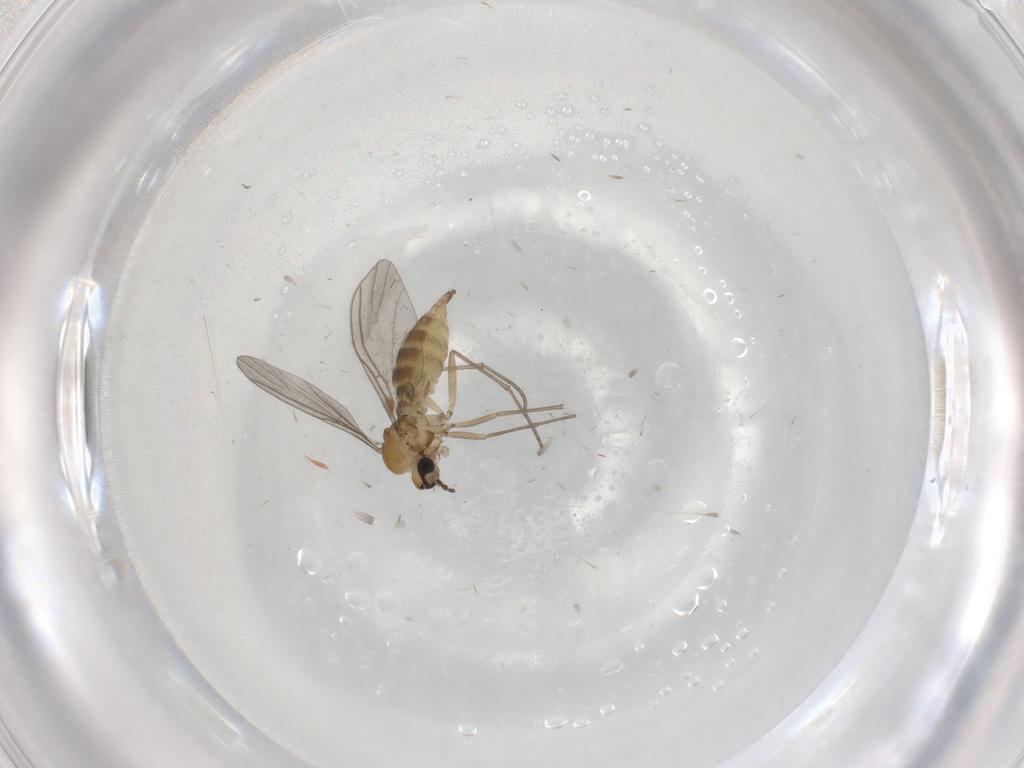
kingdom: Animalia
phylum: Arthropoda
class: Insecta
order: Diptera
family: Sciaridae
